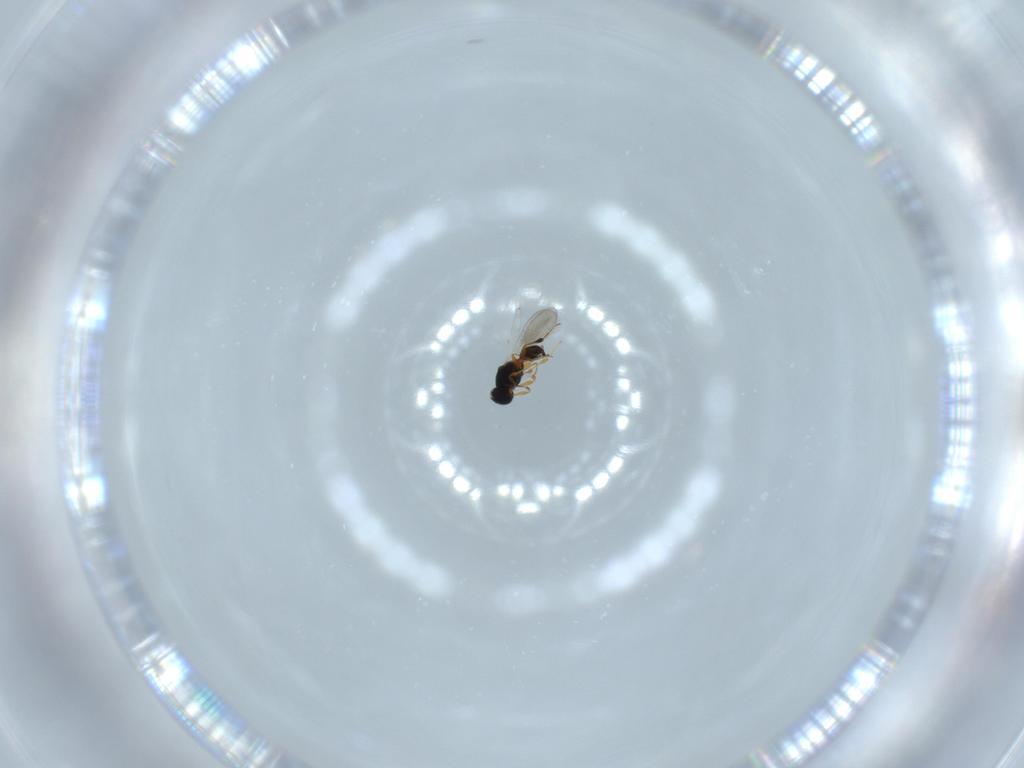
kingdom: Animalia
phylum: Arthropoda
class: Insecta
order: Hymenoptera
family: Platygastridae
